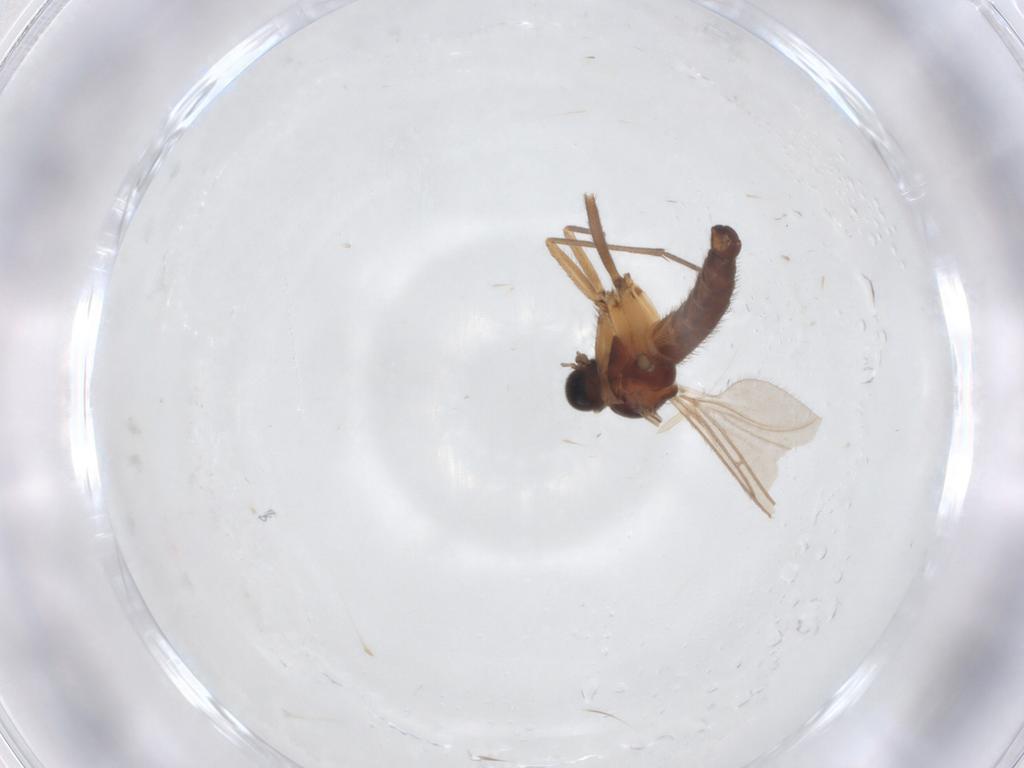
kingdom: Animalia
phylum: Arthropoda
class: Insecta
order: Diptera
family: Sciaridae
